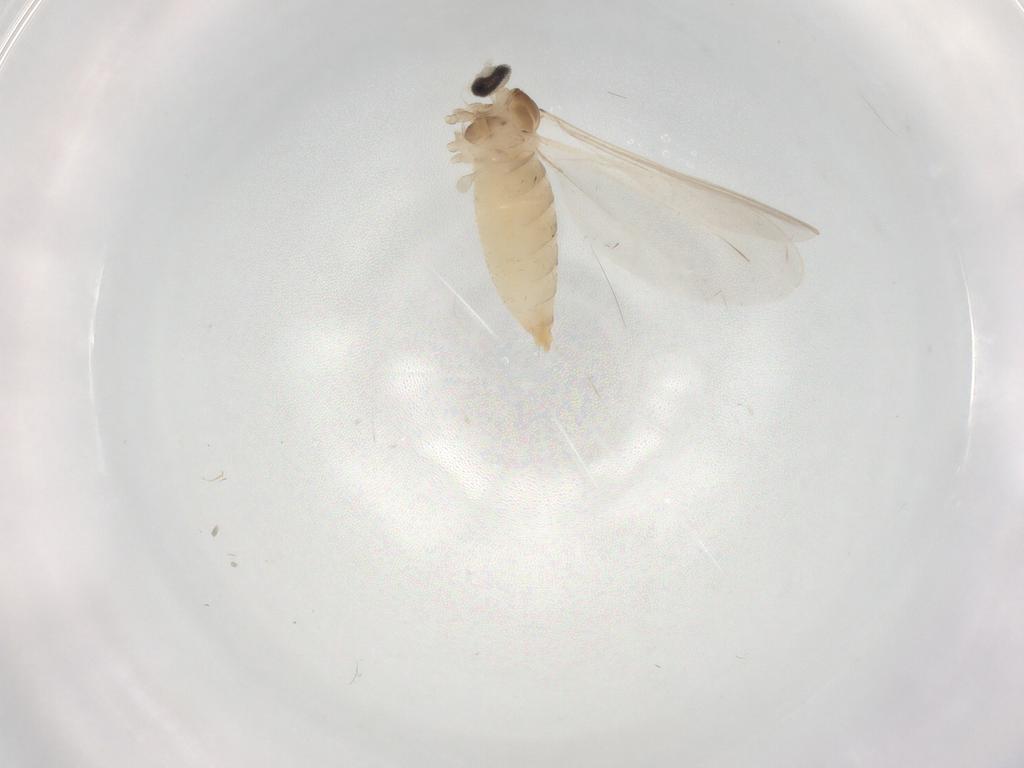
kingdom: Animalia
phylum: Arthropoda
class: Insecta
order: Diptera
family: Cecidomyiidae
